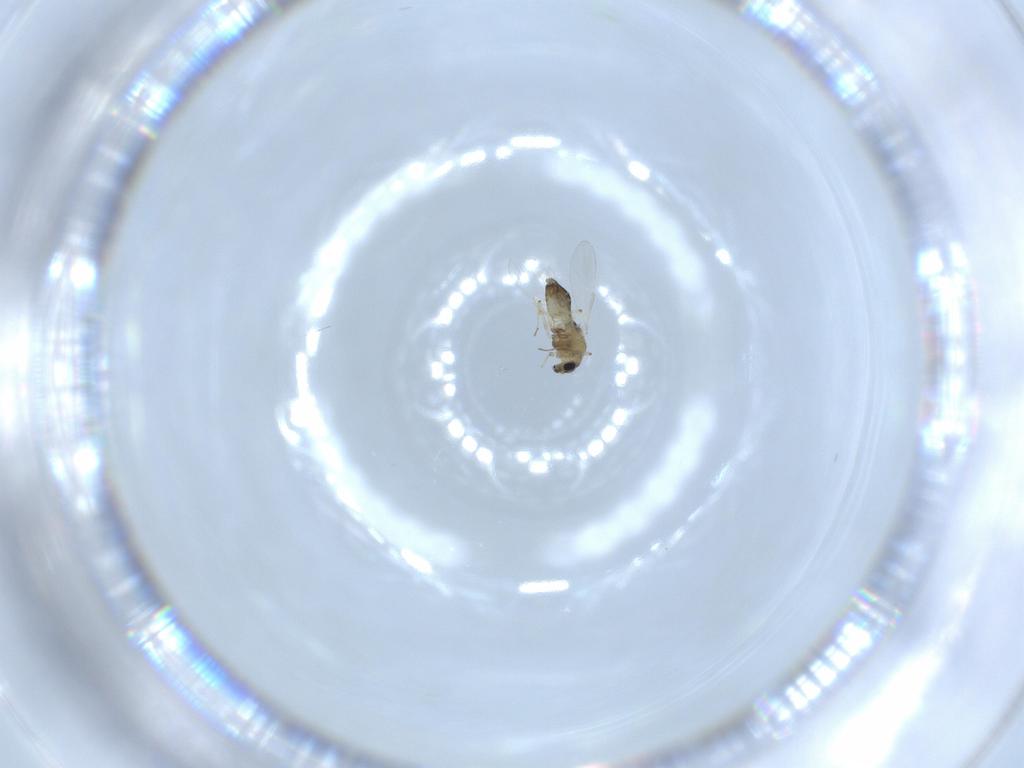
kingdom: Animalia
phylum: Arthropoda
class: Insecta
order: Diptera
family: Chironomidae
